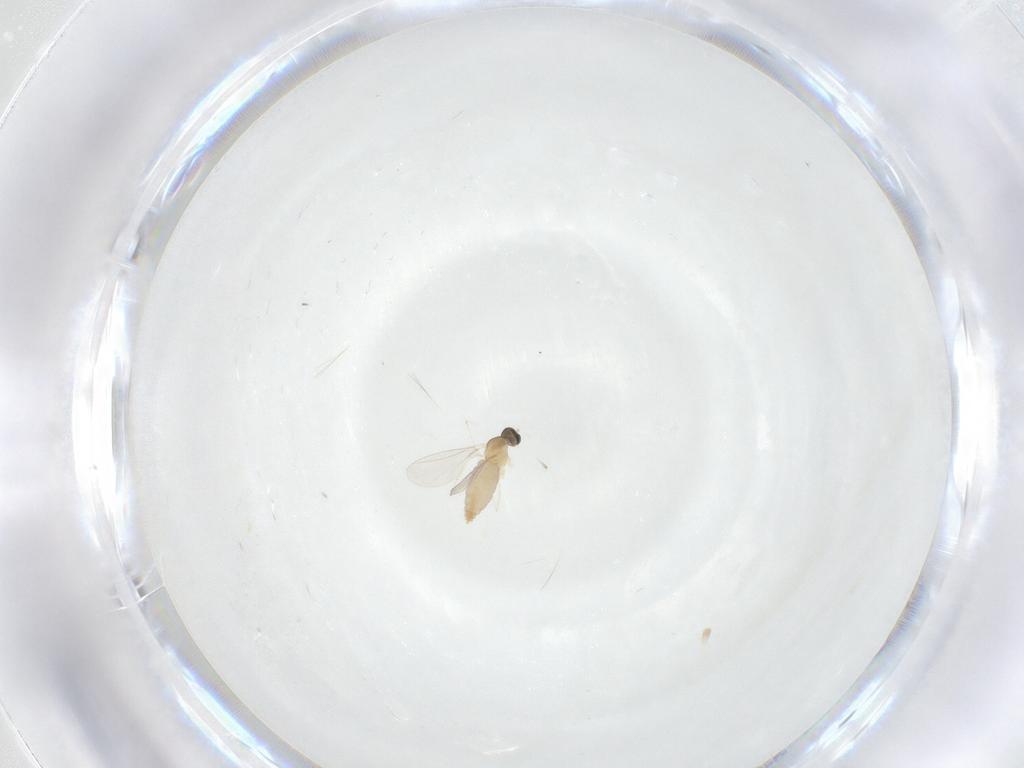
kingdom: Animalia
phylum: Arthropoda
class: Insecta
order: Diptera
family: Cecidomyiidae
